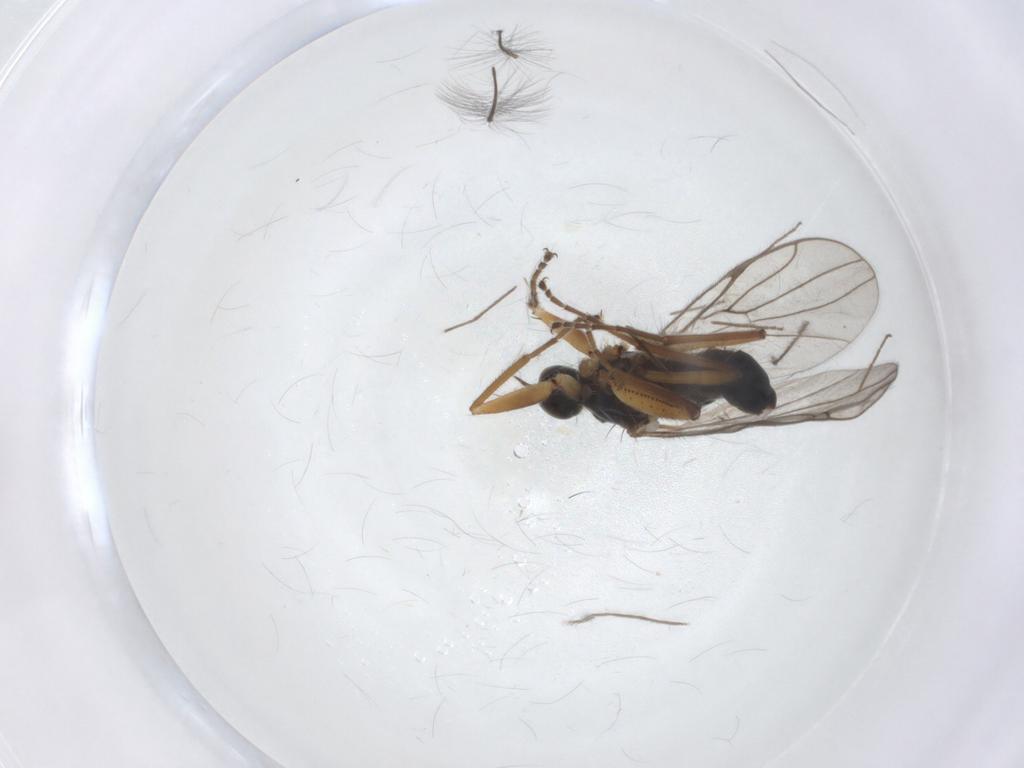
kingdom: Animalia
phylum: Arthropoda
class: Insecta
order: Diptera
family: Hybotidae
